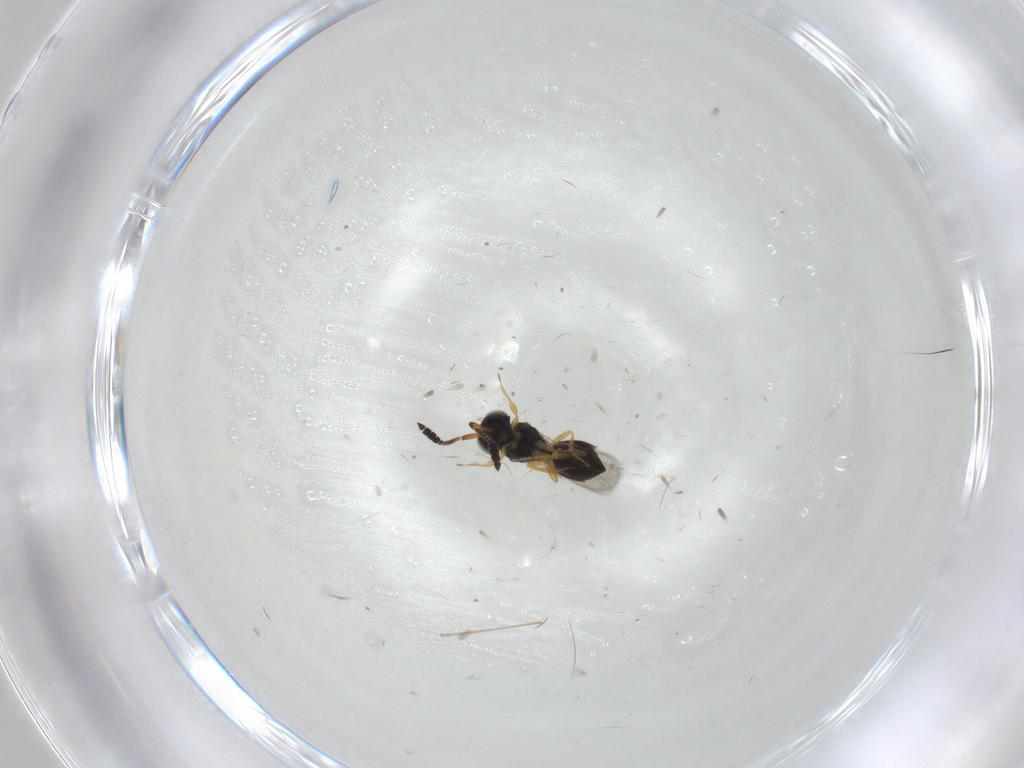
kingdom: Animalia
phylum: Arthropoda
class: Insecta
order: Hymenoptera
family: Scelionidae
